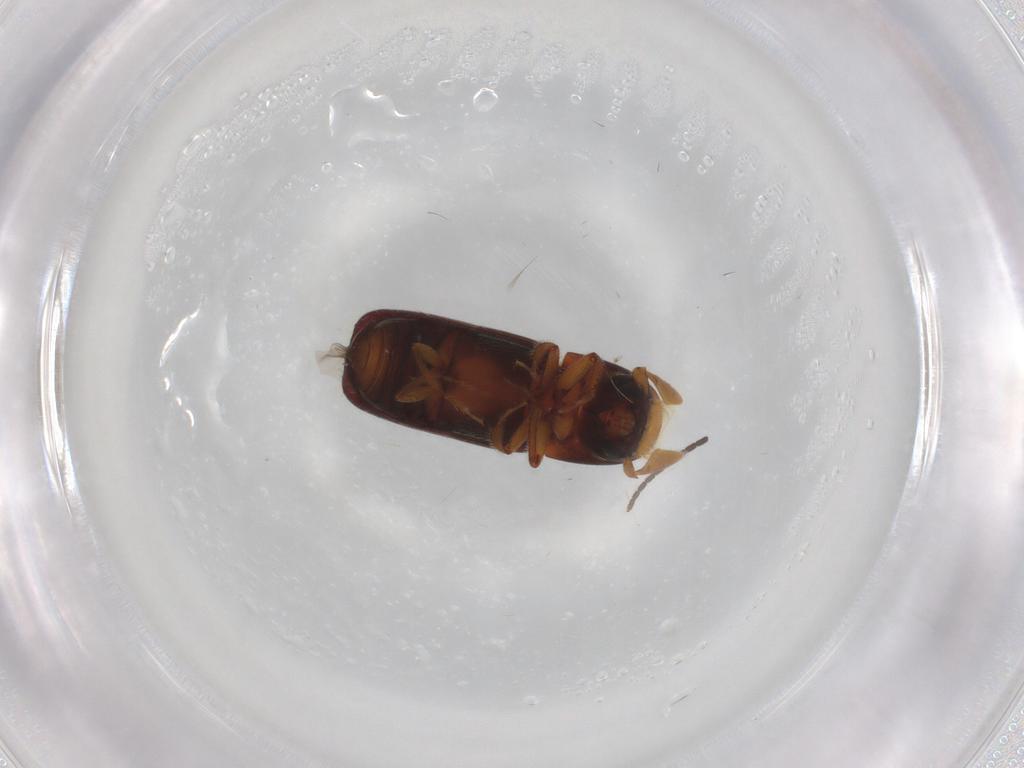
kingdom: Animalia
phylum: Arthropoda
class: Insecta
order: Coleoptera
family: Curculionidae
